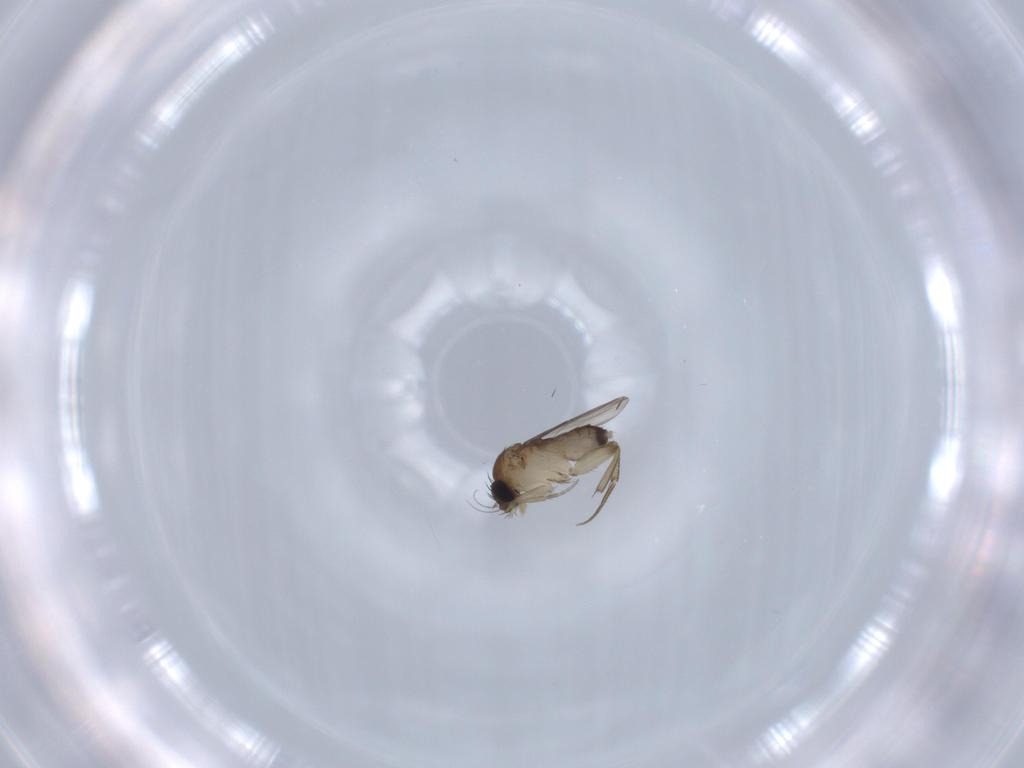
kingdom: Animalia
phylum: Arthropoda
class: Insecta
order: Diptera
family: Phoridae
